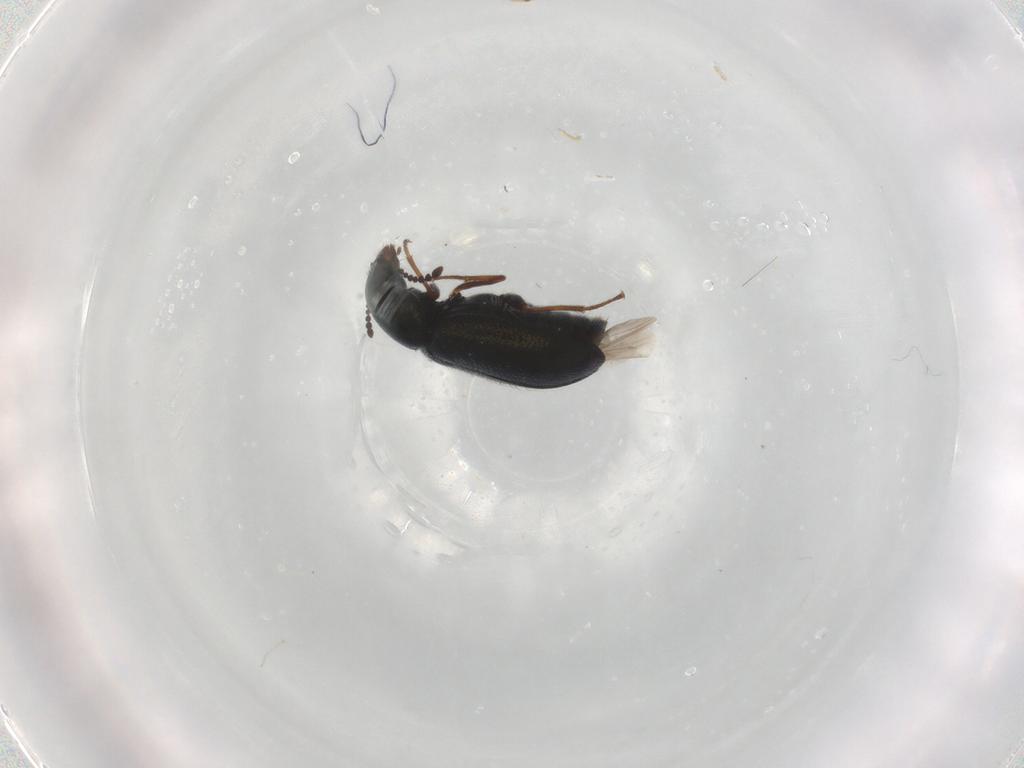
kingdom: Animalia
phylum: Arthropoda
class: Insecta
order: Coleoptera
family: Melyridae
